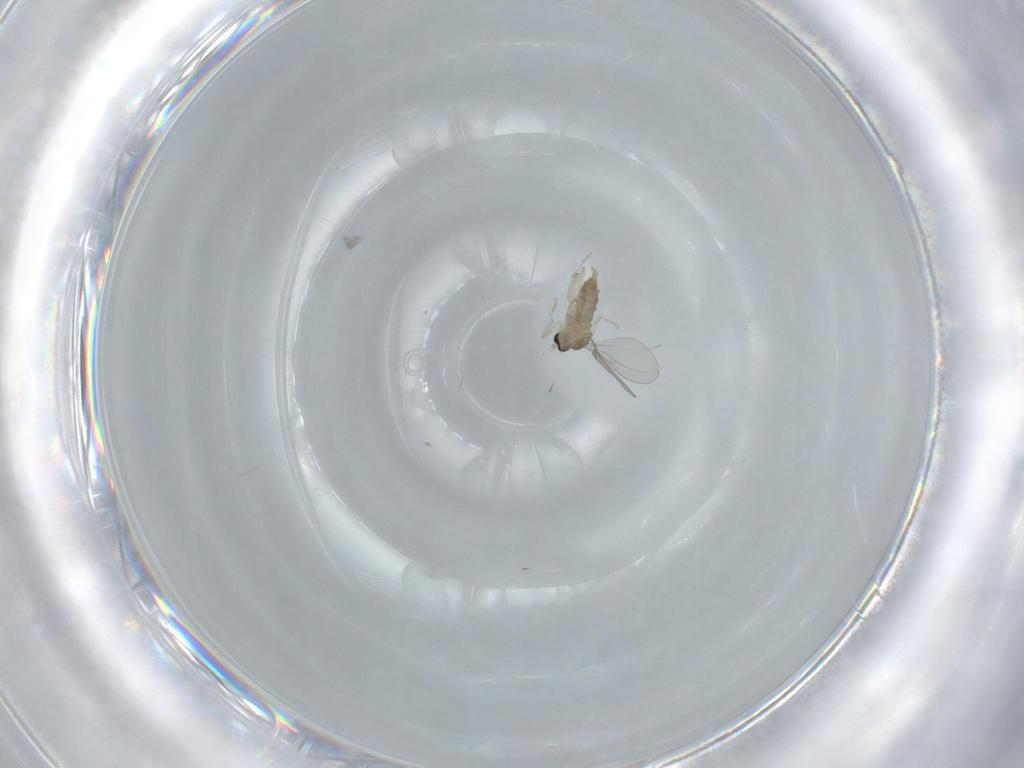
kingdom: Animalia
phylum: Arthropoda
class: Insecta
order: Diptera
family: Cecidomyiidae
